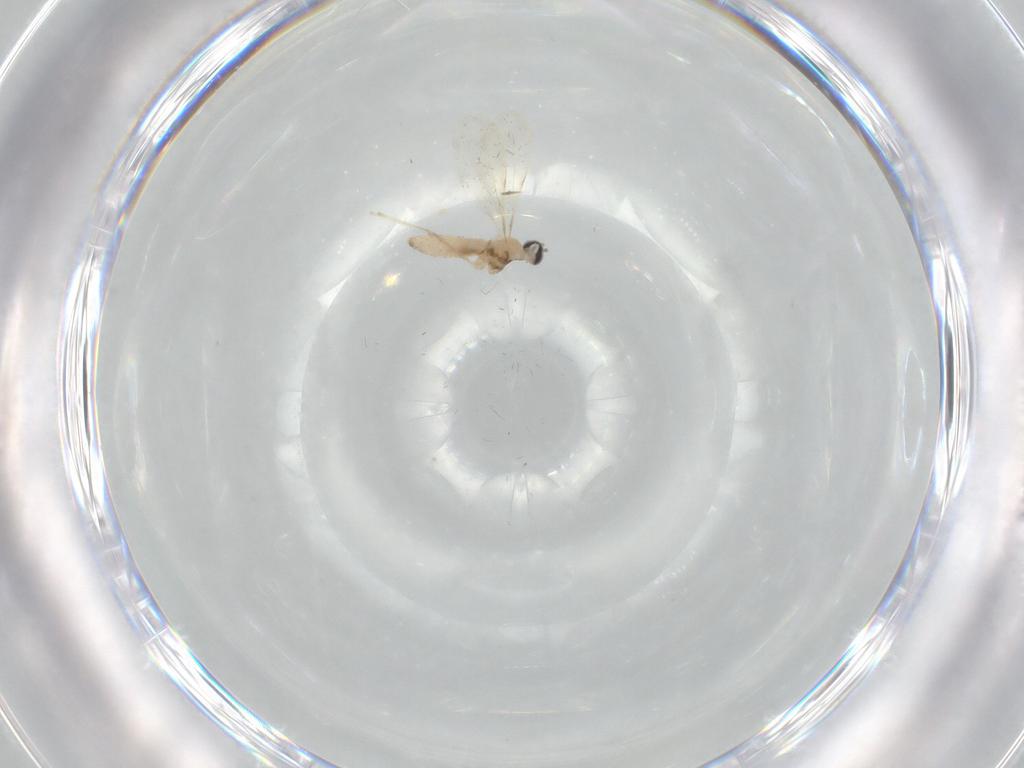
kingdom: Animalia
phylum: Arthropoda
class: Insecta
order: Diptera
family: Cecidomyiidae
